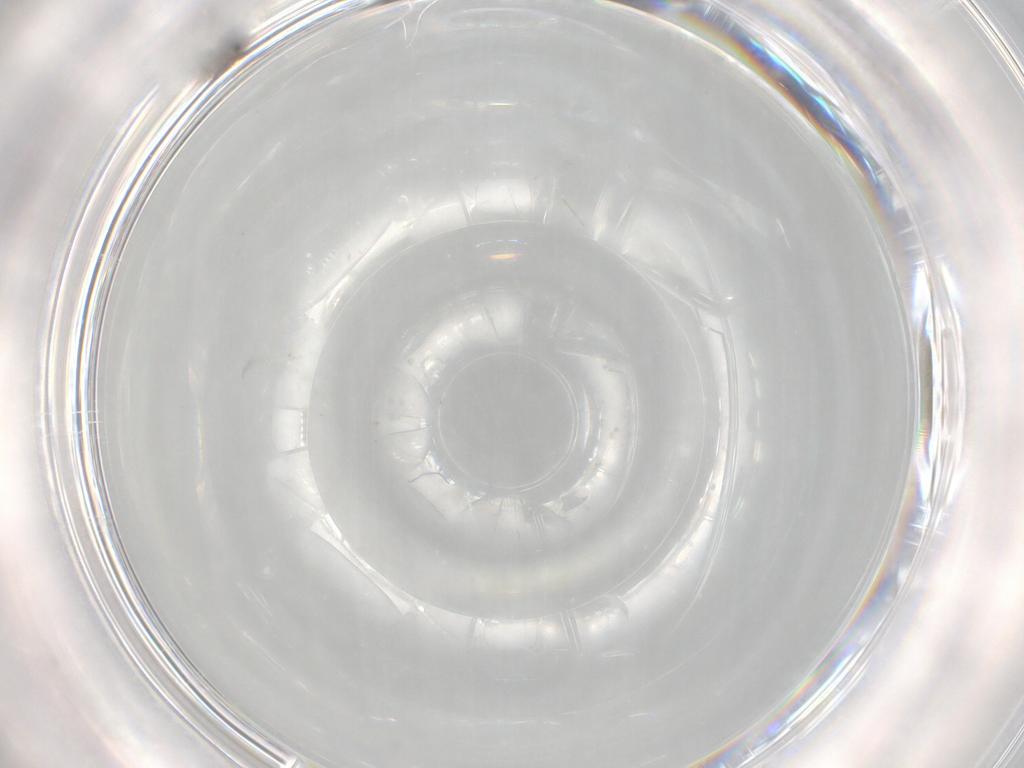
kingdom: Animalia
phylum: Arthropoda
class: Insecta
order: Diptera
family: Cecidomyiidae
